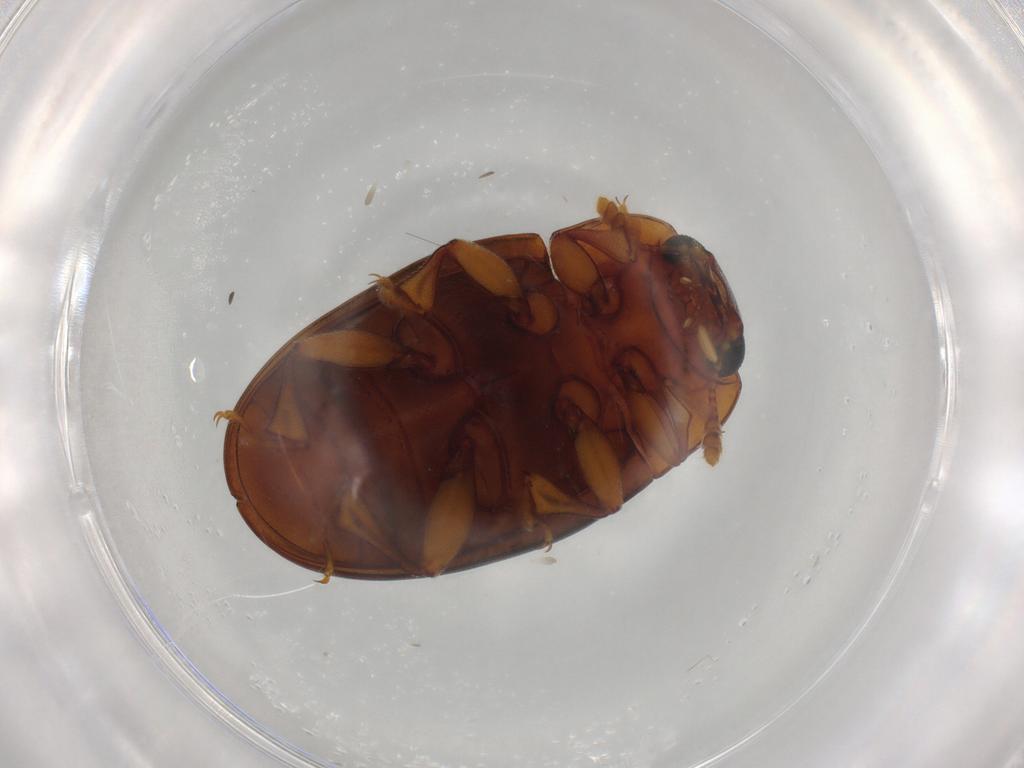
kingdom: Animalia
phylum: Arthropoda
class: Insecta
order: Coleoptera
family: Erotylidae
